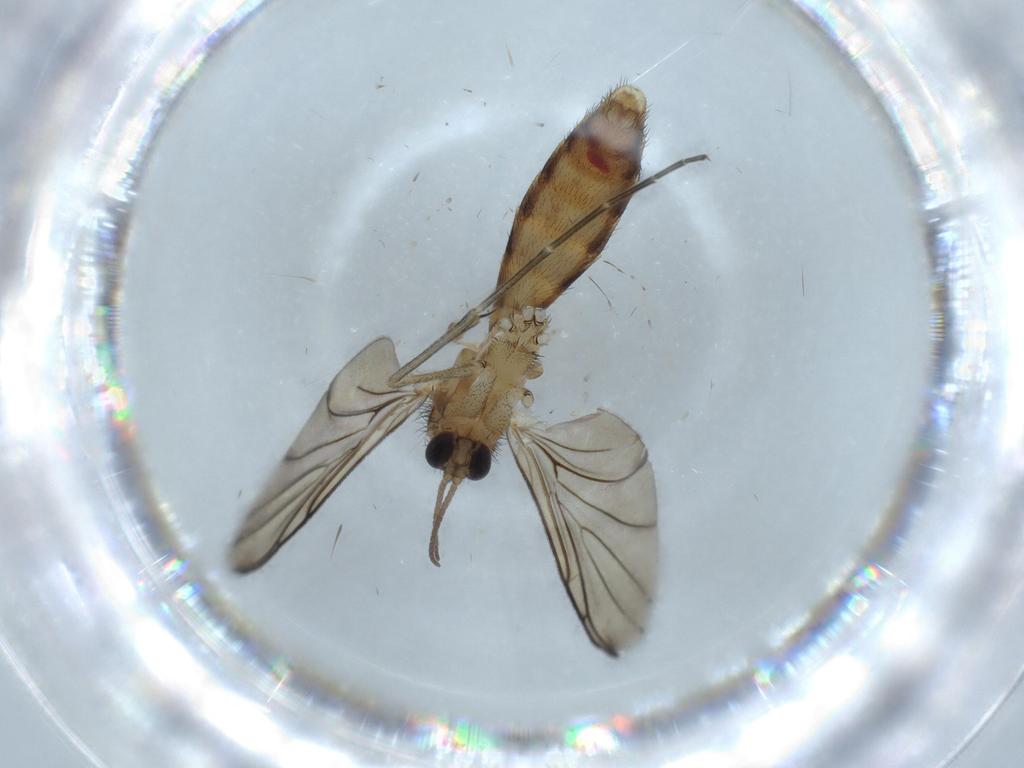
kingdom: Animalia
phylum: Arthropoda
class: Insecta
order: Diptera
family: Keroplatidae
